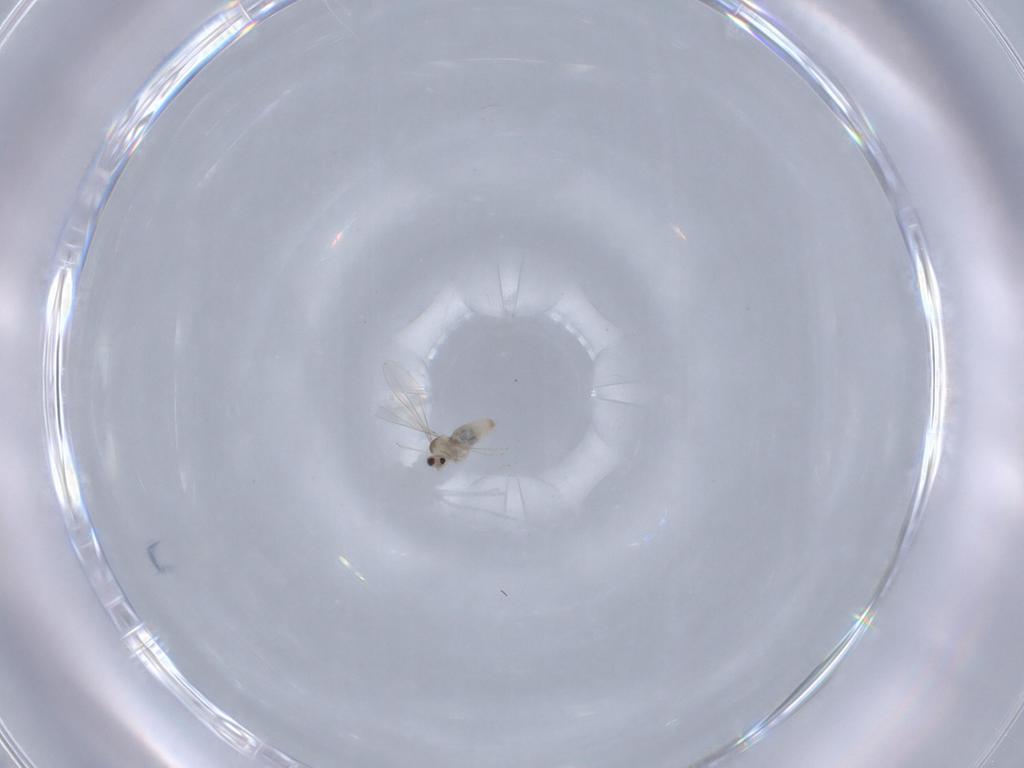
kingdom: Animalia
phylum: Arthropoda
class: Insecta
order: Diptera
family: Cecidomyiidae
